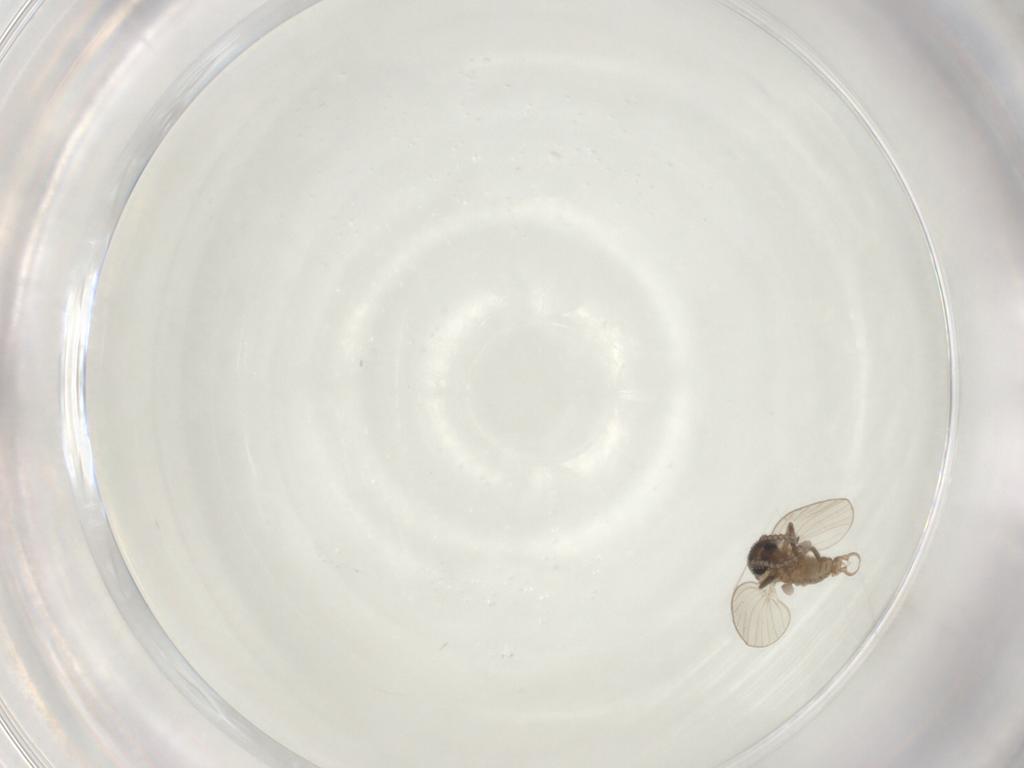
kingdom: Animalia
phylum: Arthropoda
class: Insecta
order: Diptera
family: Psychodidae
